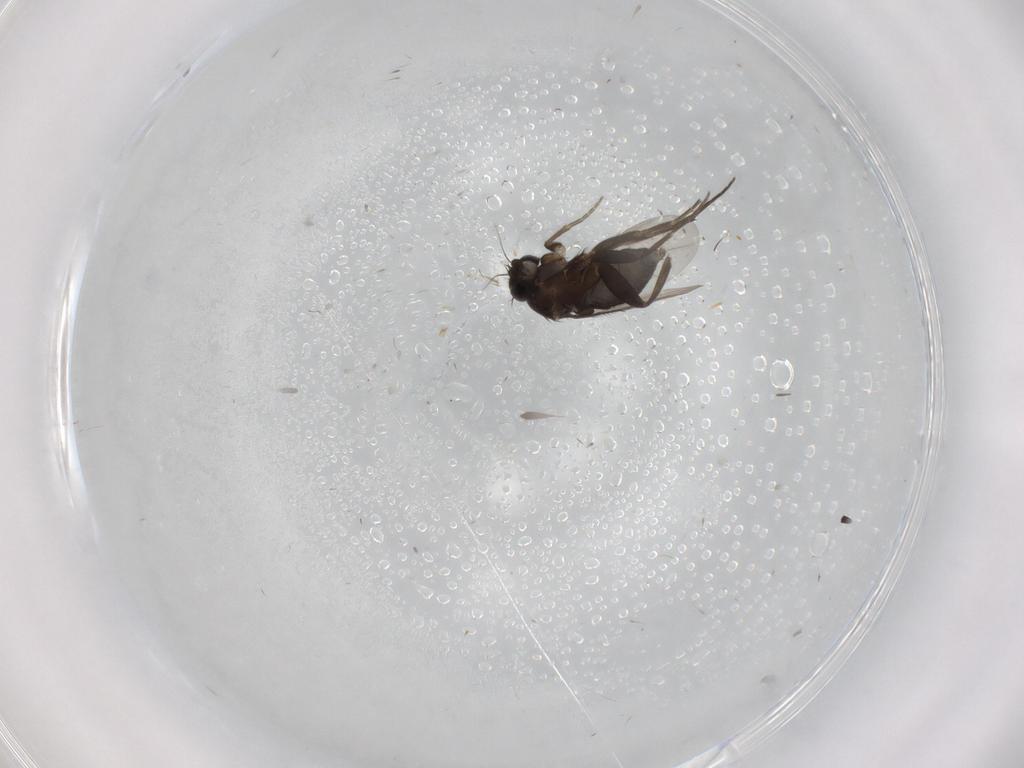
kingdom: Animalia
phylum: Arthropoda
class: Insecta
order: Diptera
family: Phoridae
